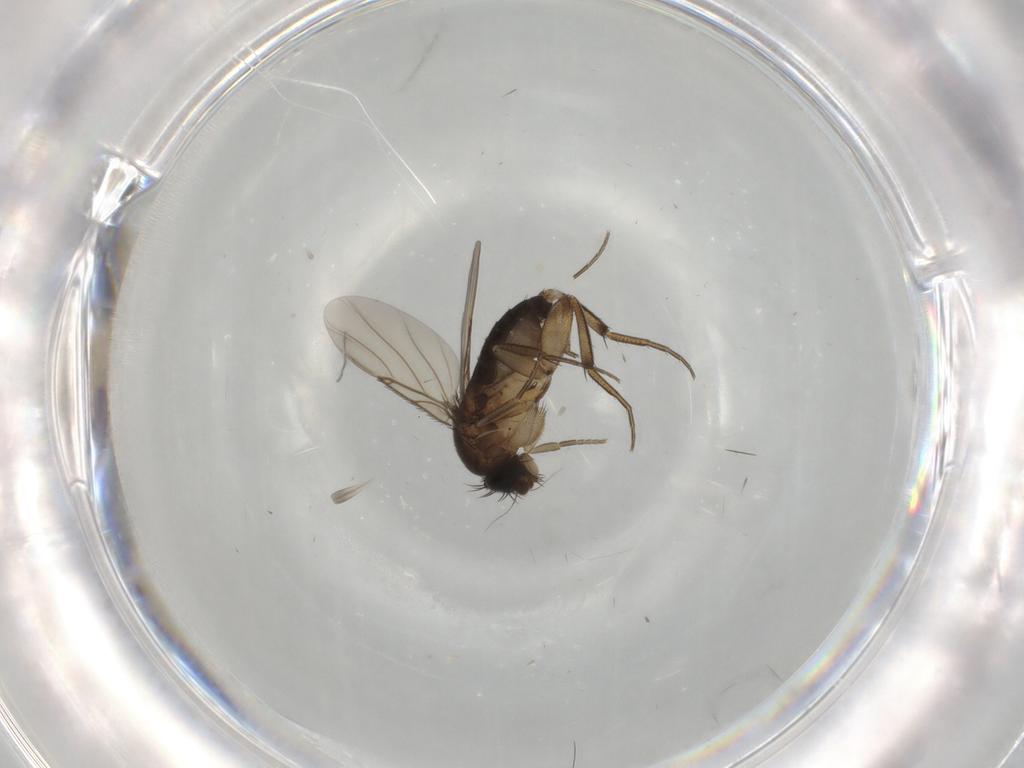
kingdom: Animalia
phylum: Arthropoda
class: Insecta
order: Diptera
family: Phoridae
